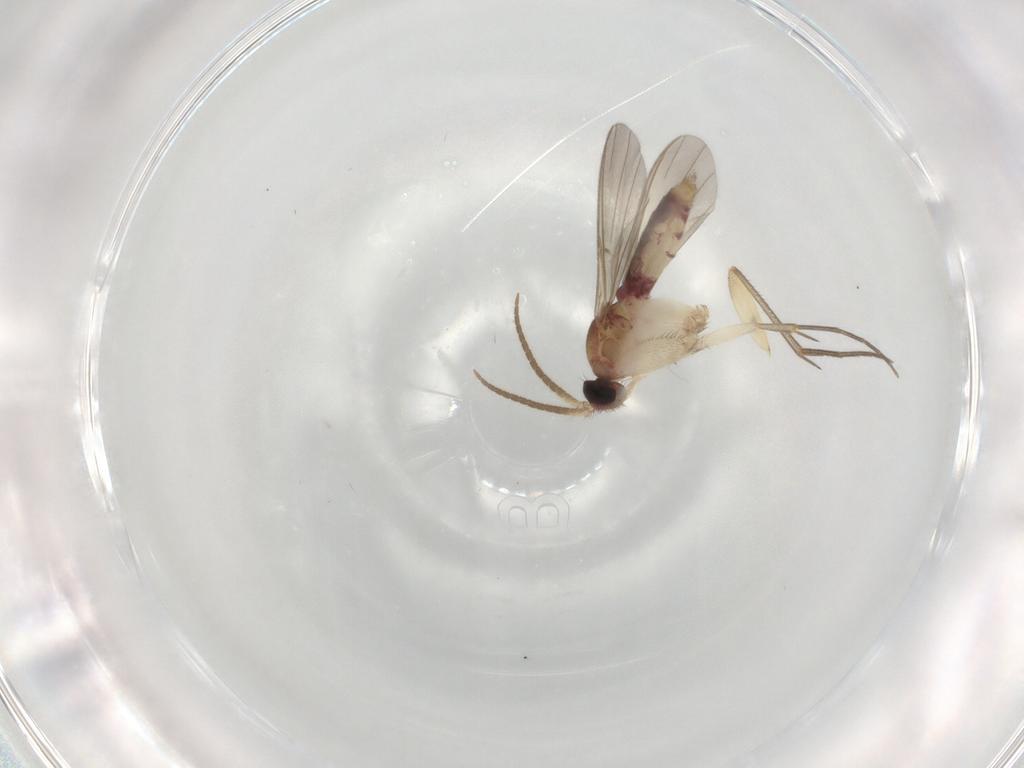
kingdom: Animalia
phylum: Arthropoda
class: Insecta
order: Diptera
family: Mycetophilidae
